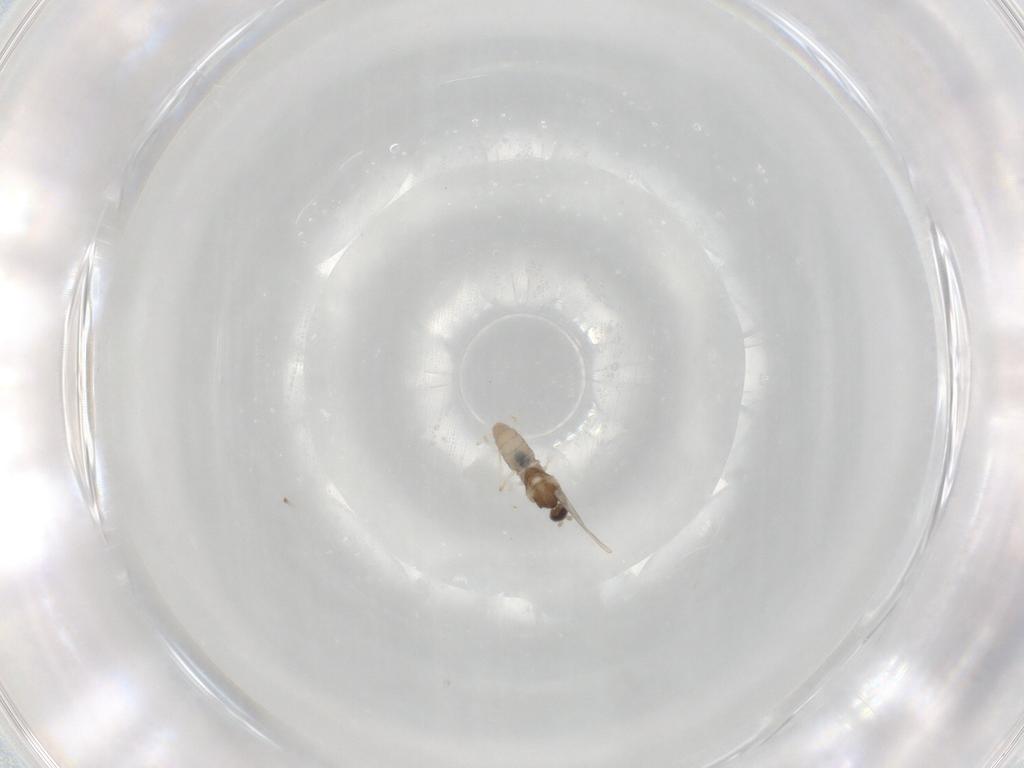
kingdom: Animalia
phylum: Arthropoda
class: Insecta
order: Diptera
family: Cecidomyiidae
